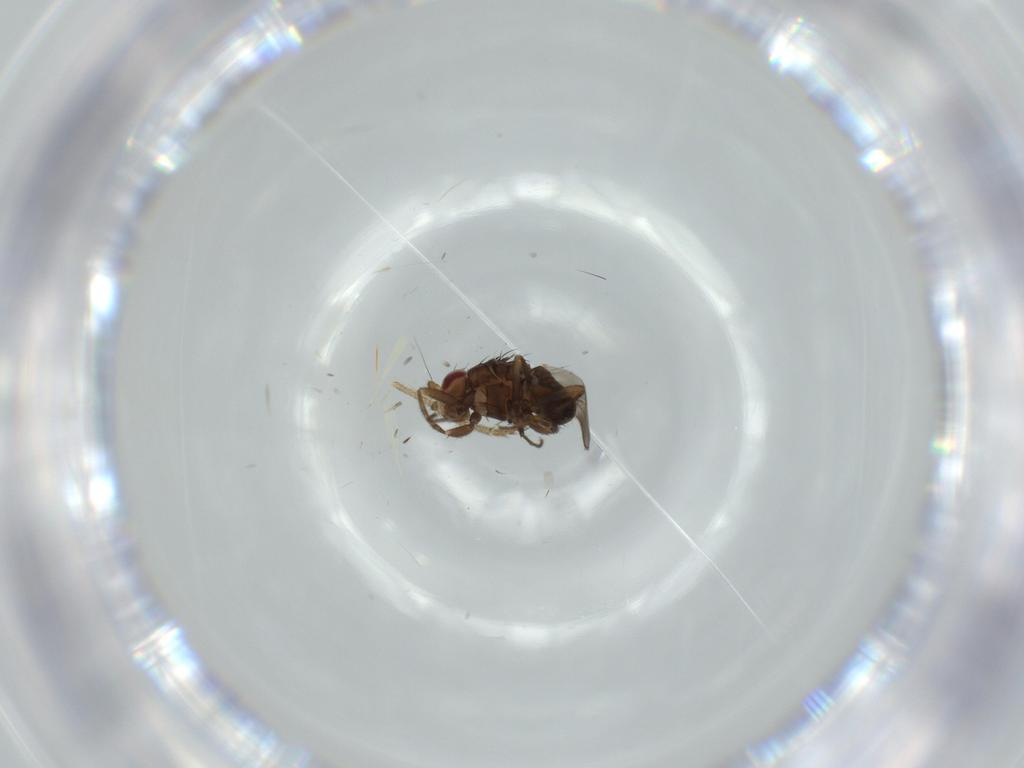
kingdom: Animalia
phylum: Arthropoda
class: Insecta
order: Diptera
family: Sphaeroceridae
